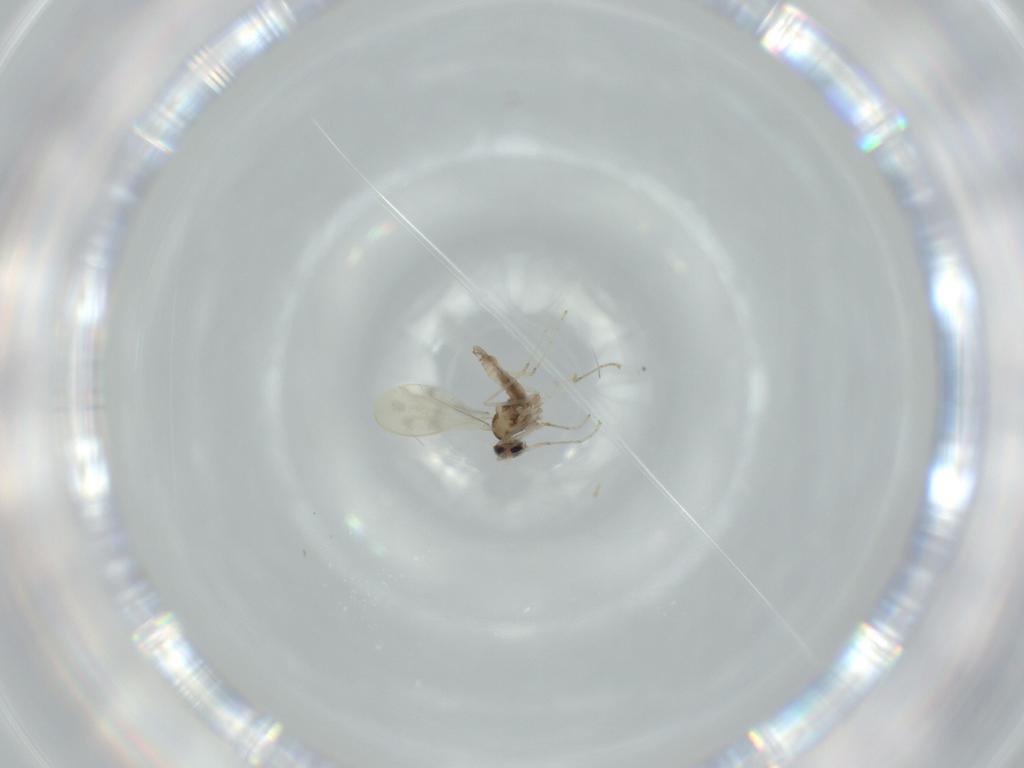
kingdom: Animalia
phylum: Arthropoda
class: Insecta
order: Diptera
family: Cecidomyiidae
